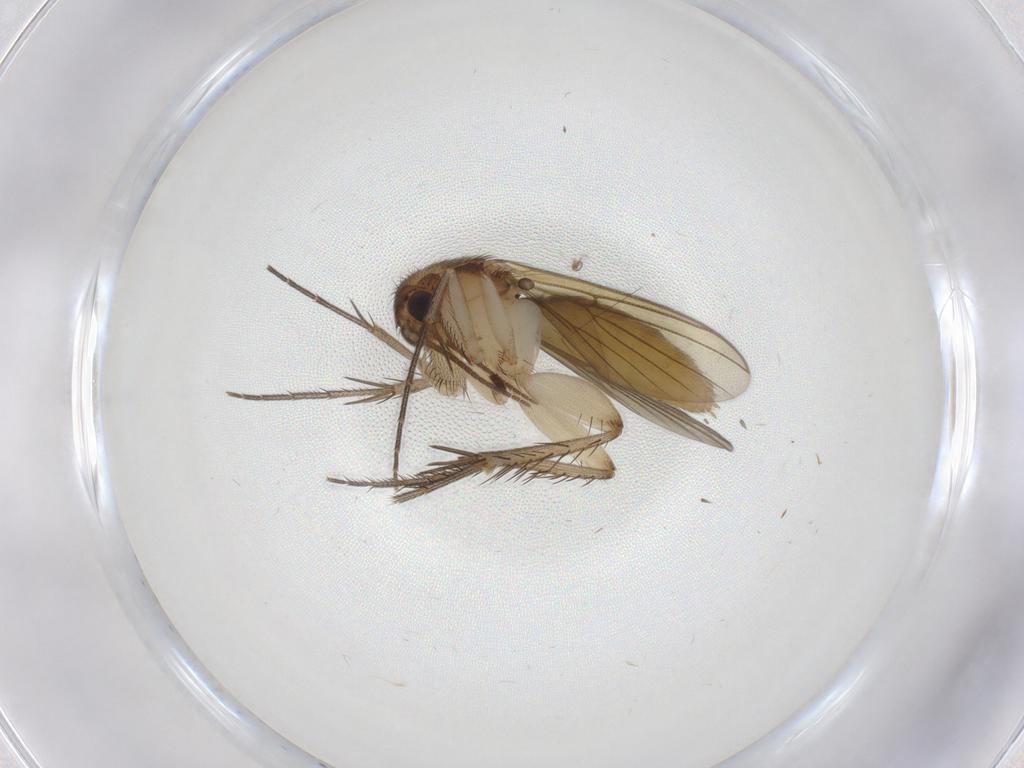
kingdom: Animalia
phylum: Arthropoda
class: Insecta
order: Diptera
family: Mycetophilidae
